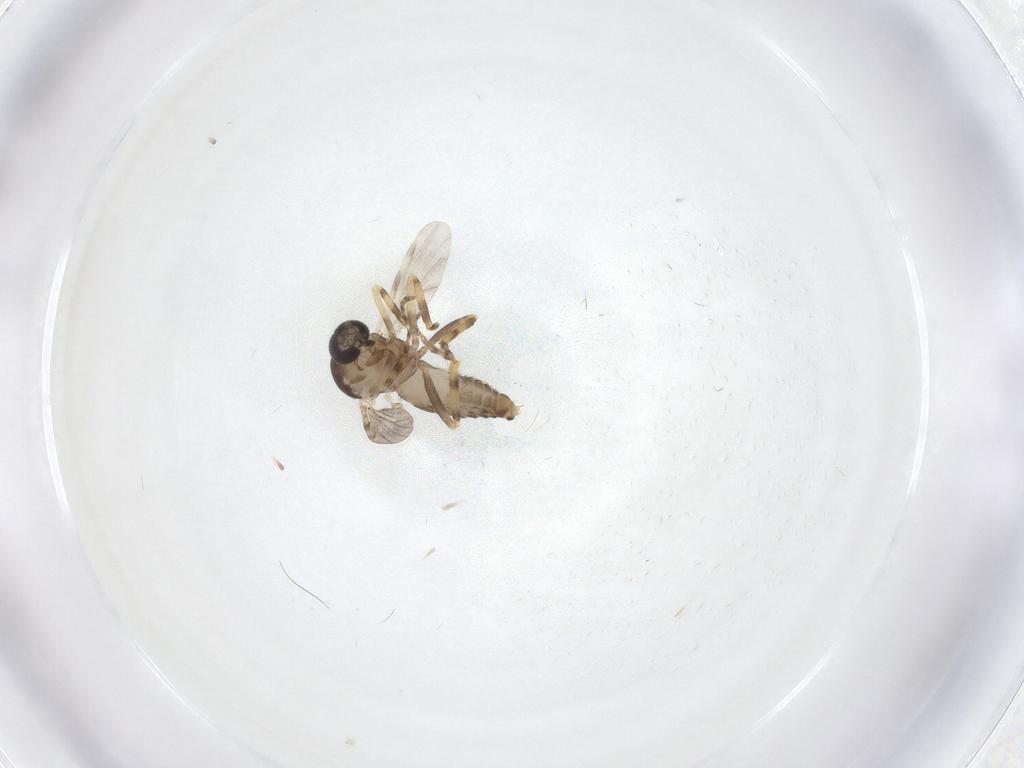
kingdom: Animalia
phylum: Arthropoda
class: Insecta
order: Diptera
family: Ceratopogonidae
